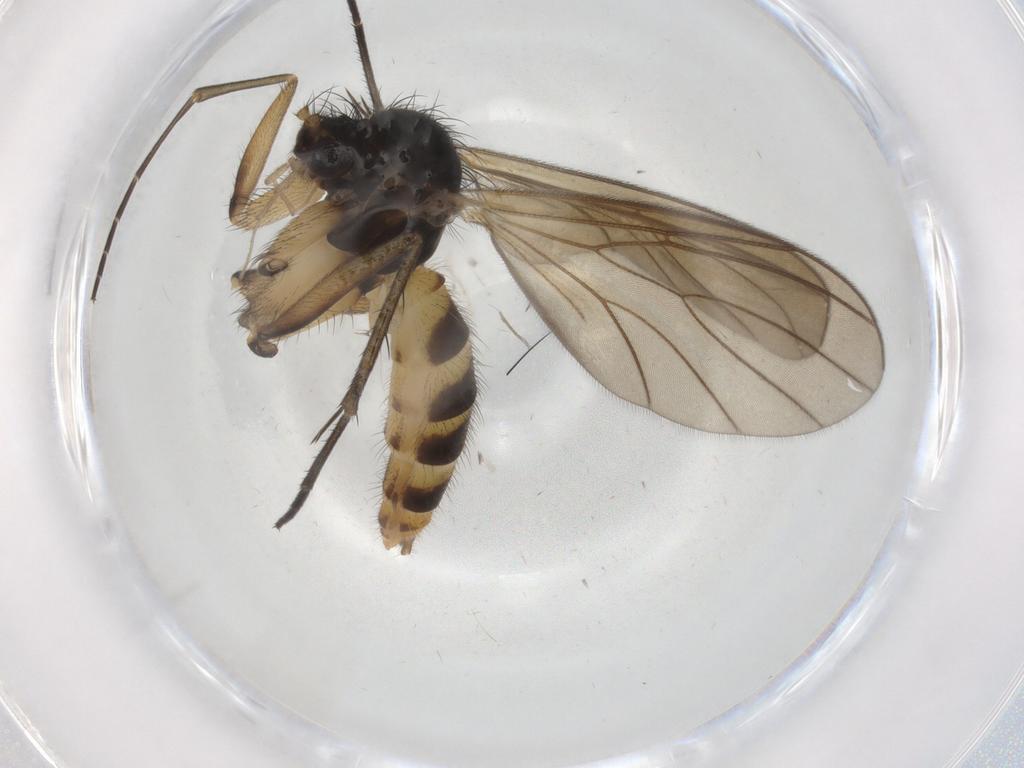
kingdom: Animalia
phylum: Arthropoda
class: Insecta
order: Diptera
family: Mycetophilidae
